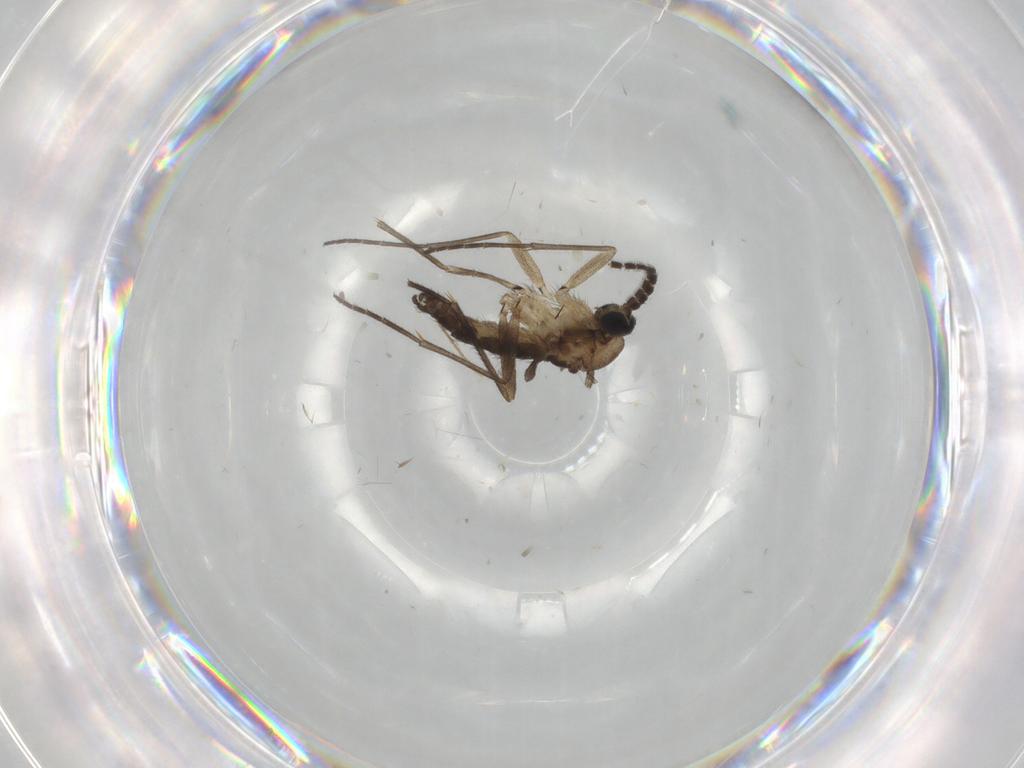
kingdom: Animalia
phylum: Arthropoda
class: Insecta
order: Diptera
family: Sciaridae
